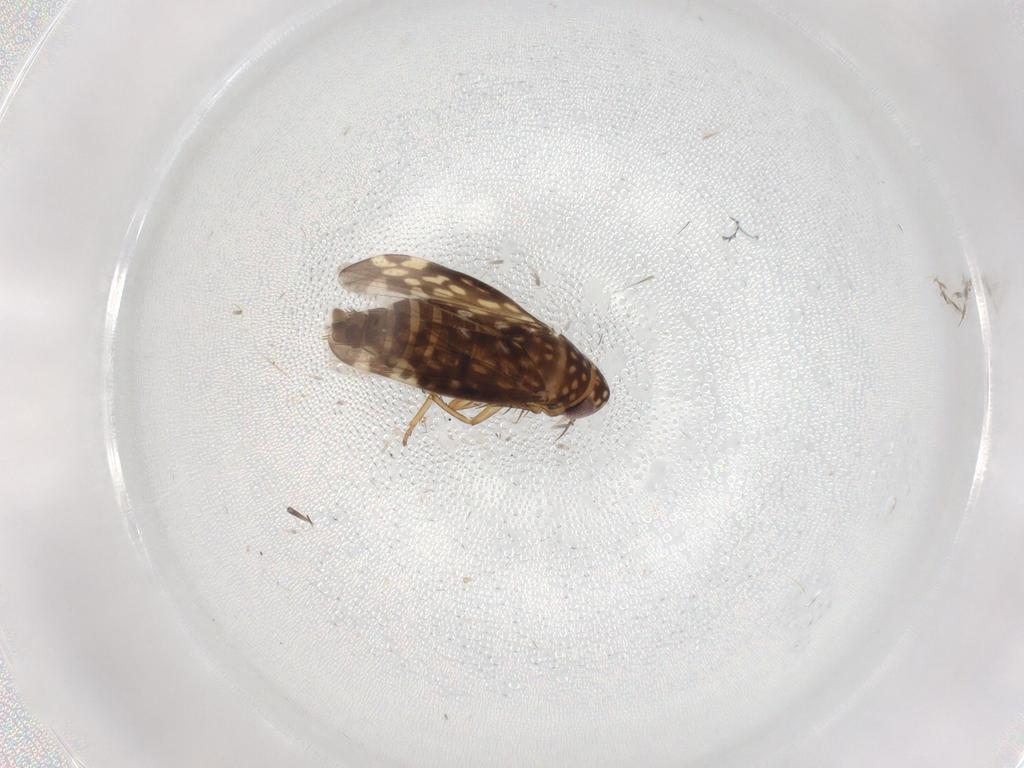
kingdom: Animalia
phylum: Arthropoda
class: Insecta
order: Hemiptera
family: Cicadellidae
